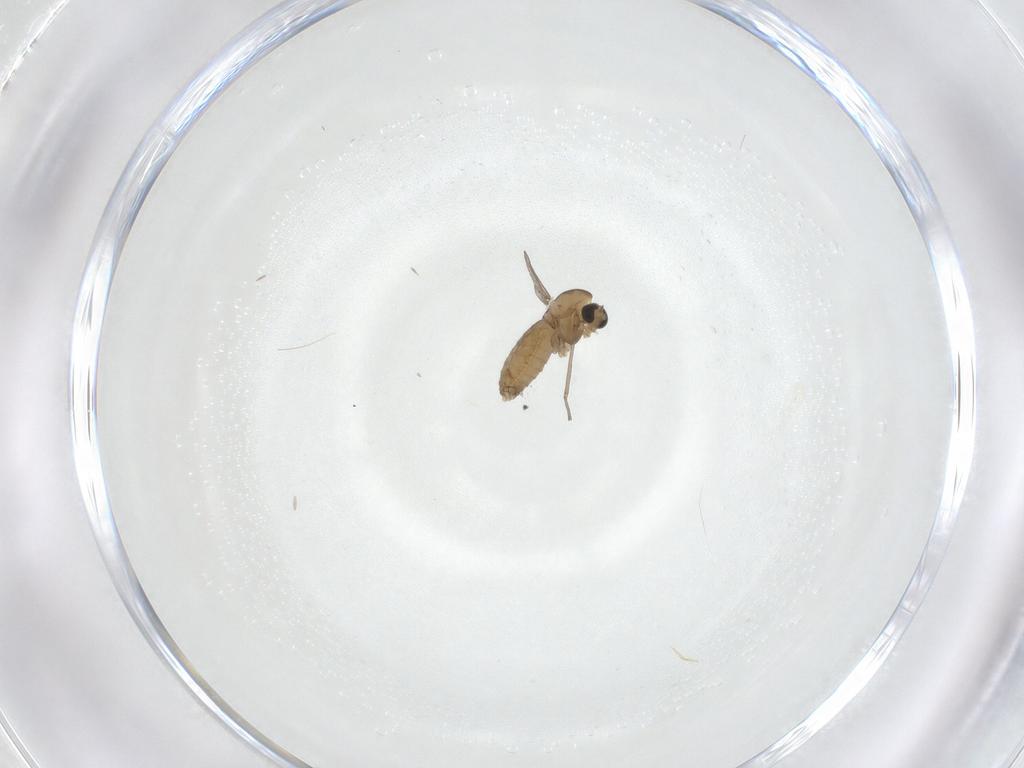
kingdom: Animalia
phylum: Arthropoda
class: Insecta
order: Diptera
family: Chironomidae
